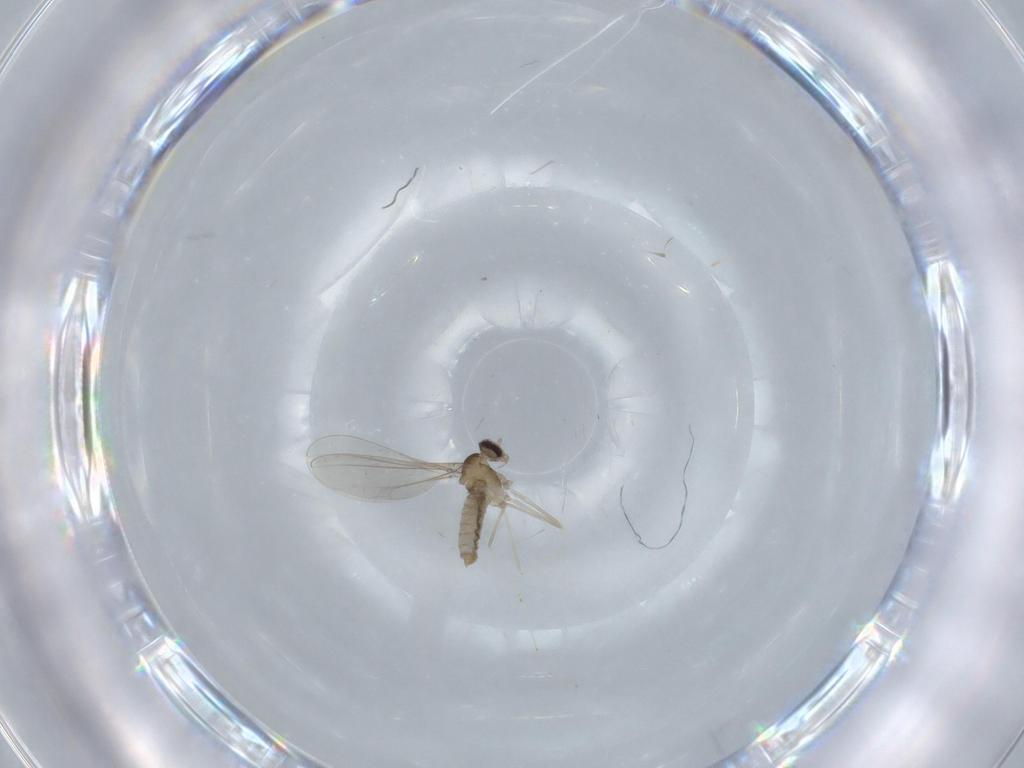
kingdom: Animalia
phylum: Arthropoda
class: Insecta
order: Diptera
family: Cecidomyiidae
